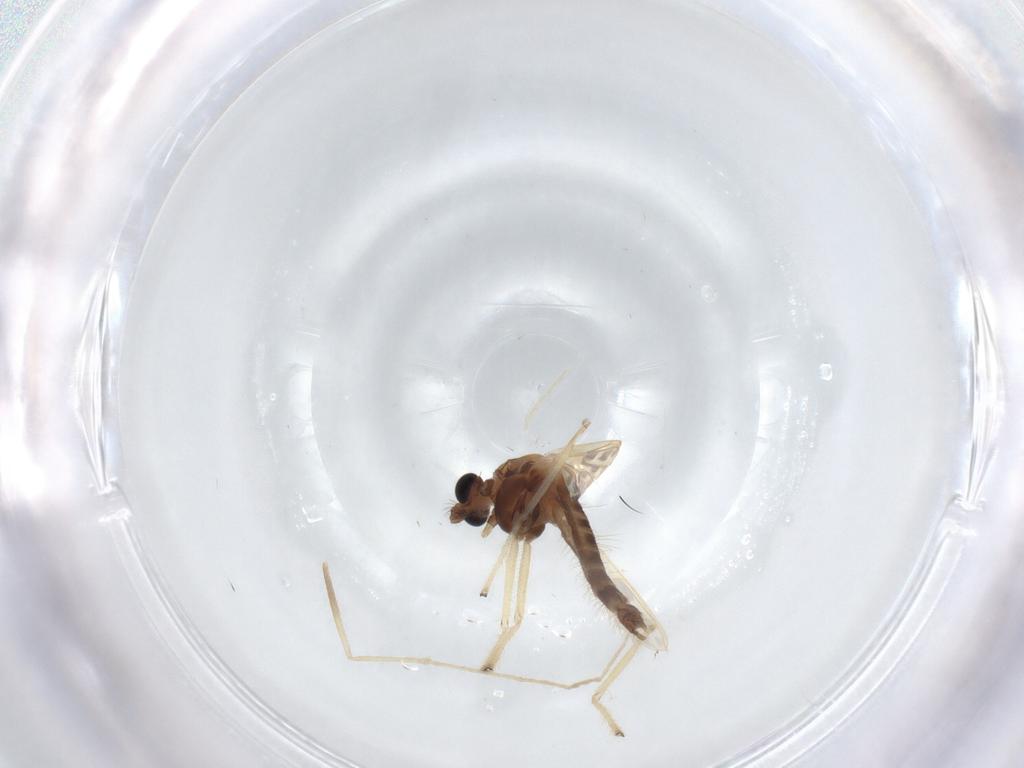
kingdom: Animalia
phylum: Arthropoda
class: Insecta
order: Diptera
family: Chironomidae
